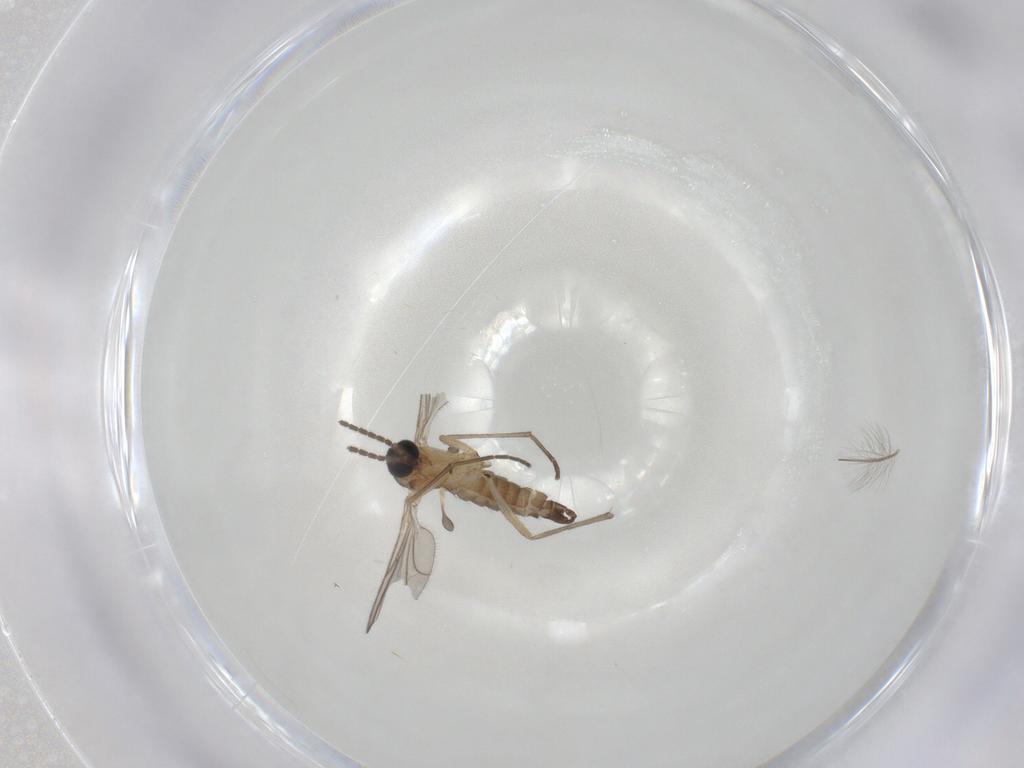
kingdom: Animalia
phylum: Arthropoda
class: Insecta
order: Diptera
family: Sciaridae
